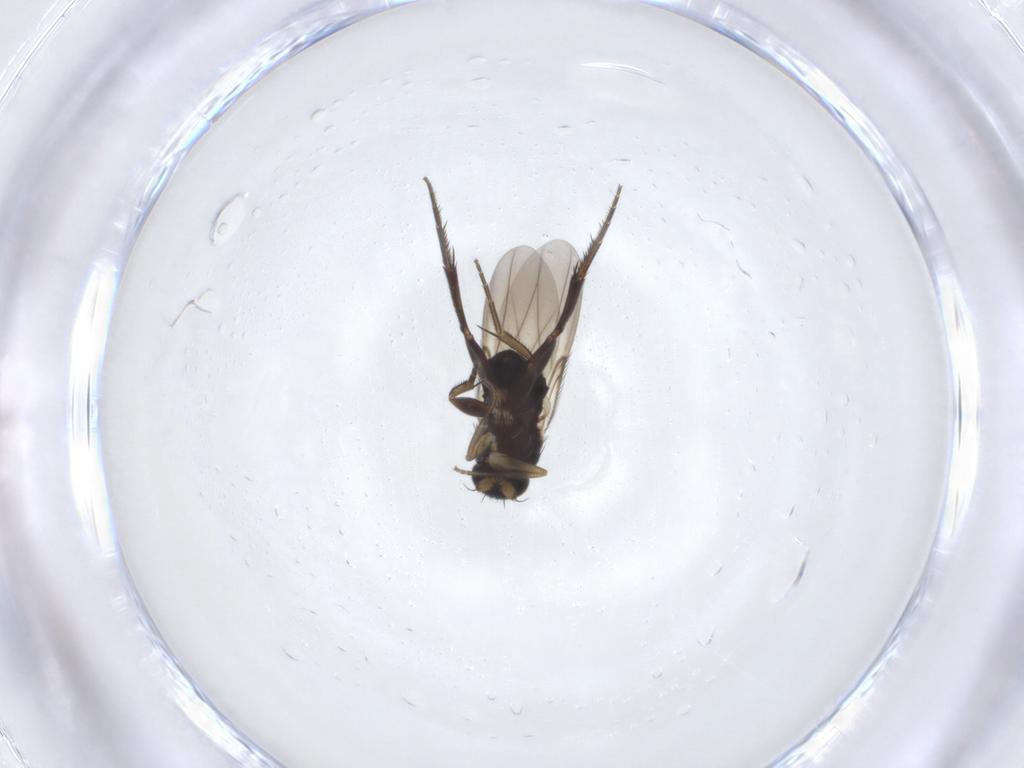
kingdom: Animalia
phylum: Arthropoda
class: Insecta
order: Diptera
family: Phoridae
